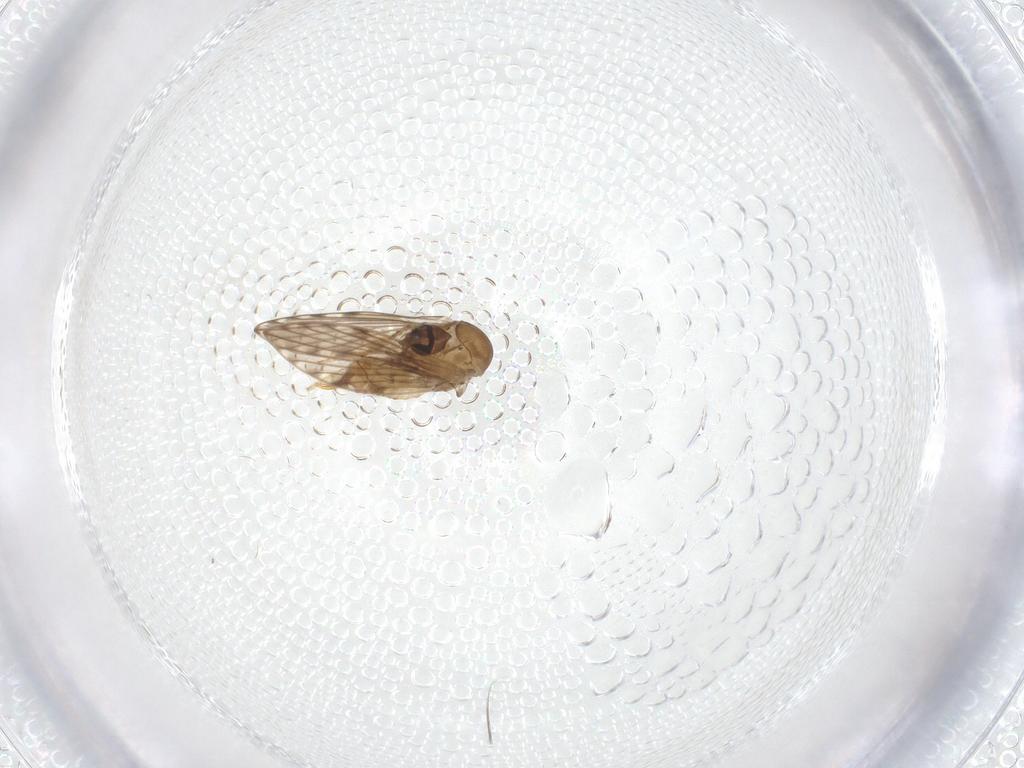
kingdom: Animalia
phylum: Arthropoda
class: Insecta
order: Diptera
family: Psychodidae
